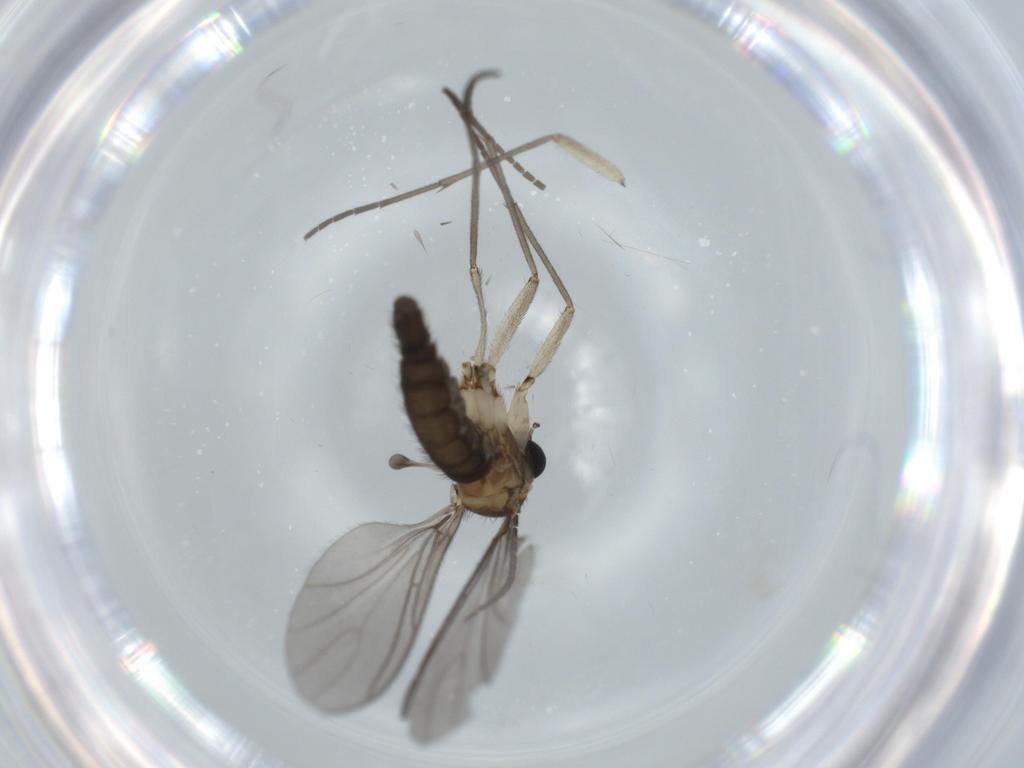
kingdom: Animalia
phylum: Arthropoda
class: Insecta
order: Diptera
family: Sciaridae
